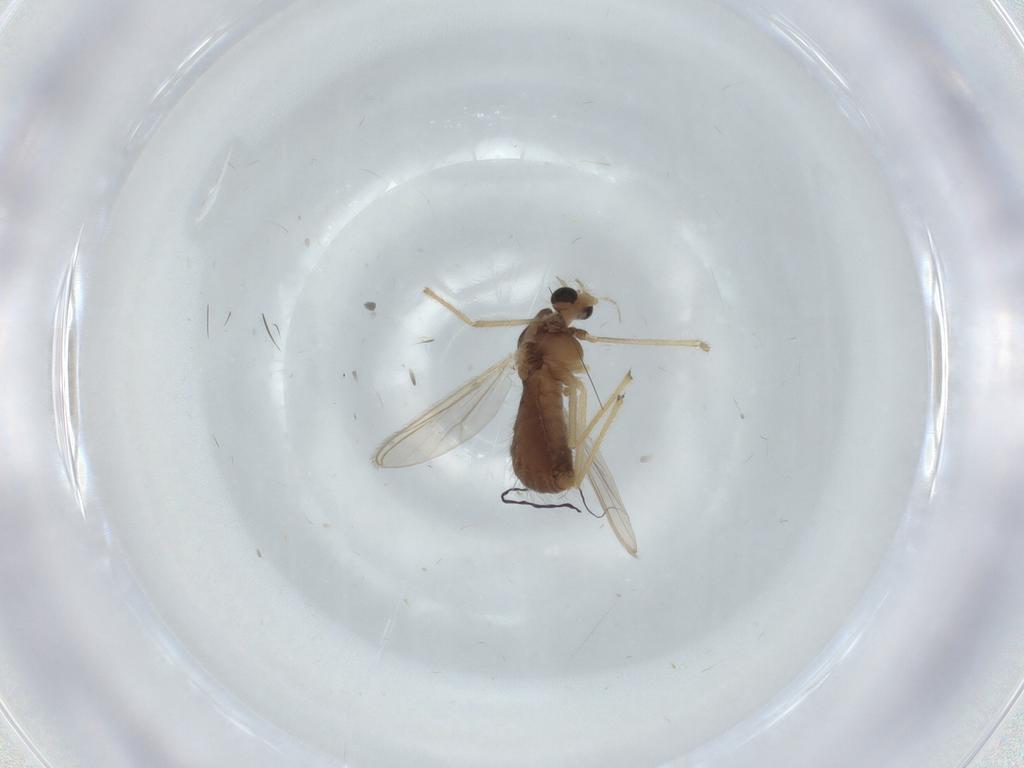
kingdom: Animalia
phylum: Arthropoda
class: Insecta
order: Diptera
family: Chironomidae
